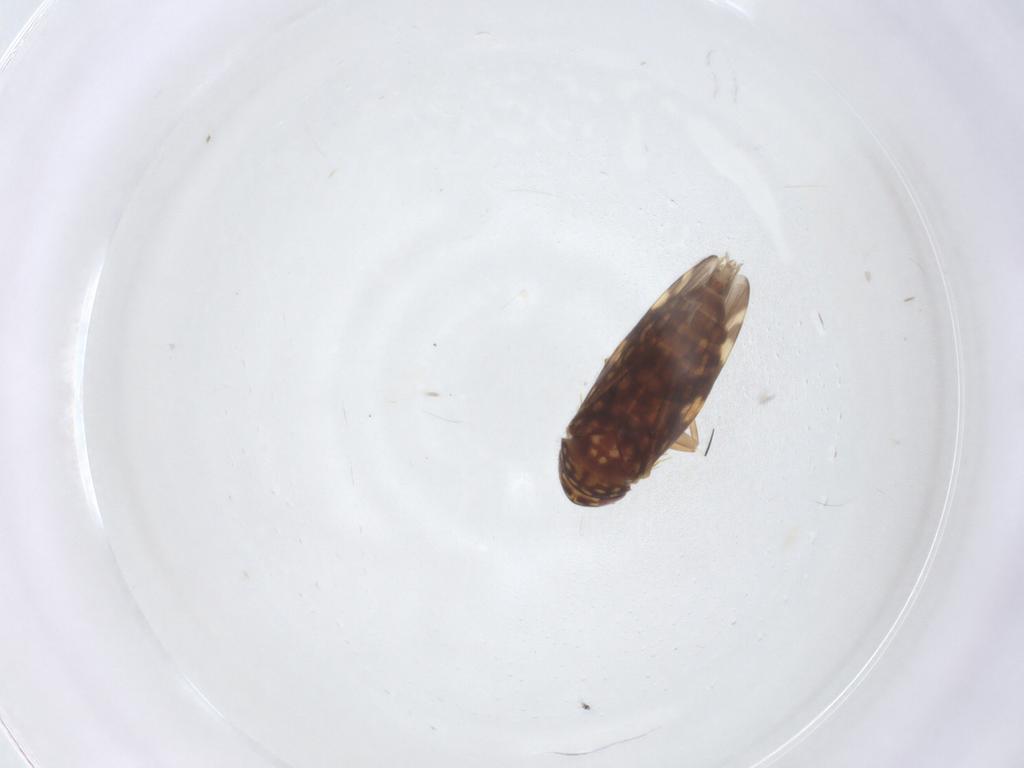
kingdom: Animalia
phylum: Arthropoda
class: Insecta
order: Hemiptera
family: Cicadellidae
